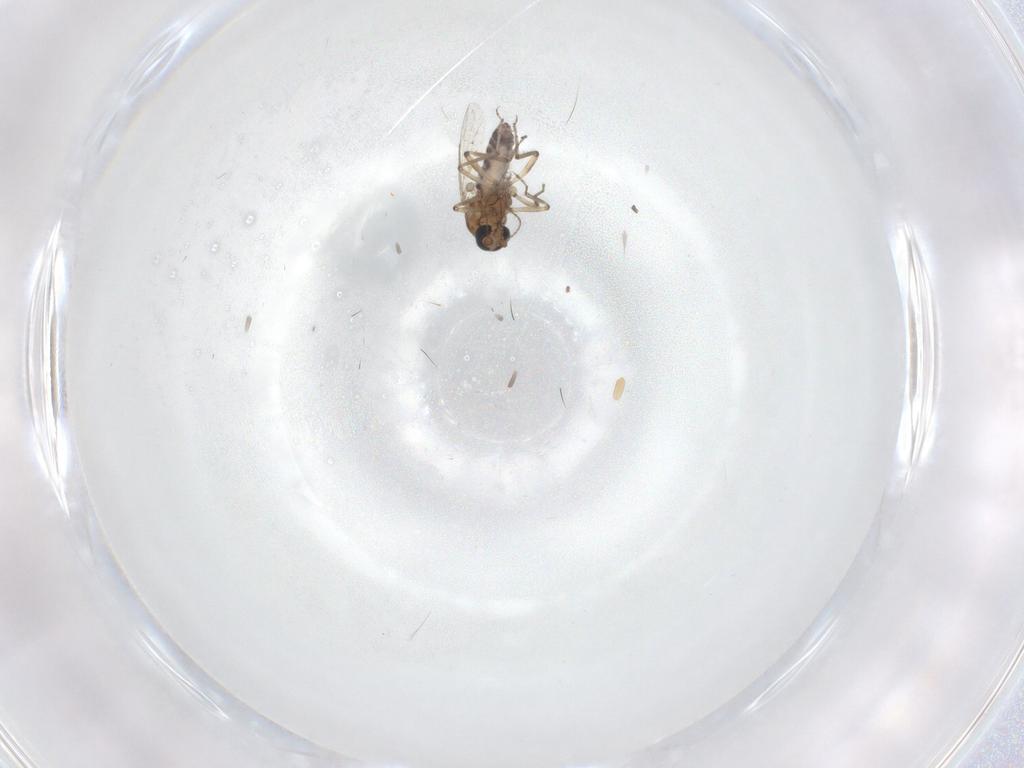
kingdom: Animalia
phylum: Arthropoda
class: Insecta
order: Diptera
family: Ceratopogonidae
